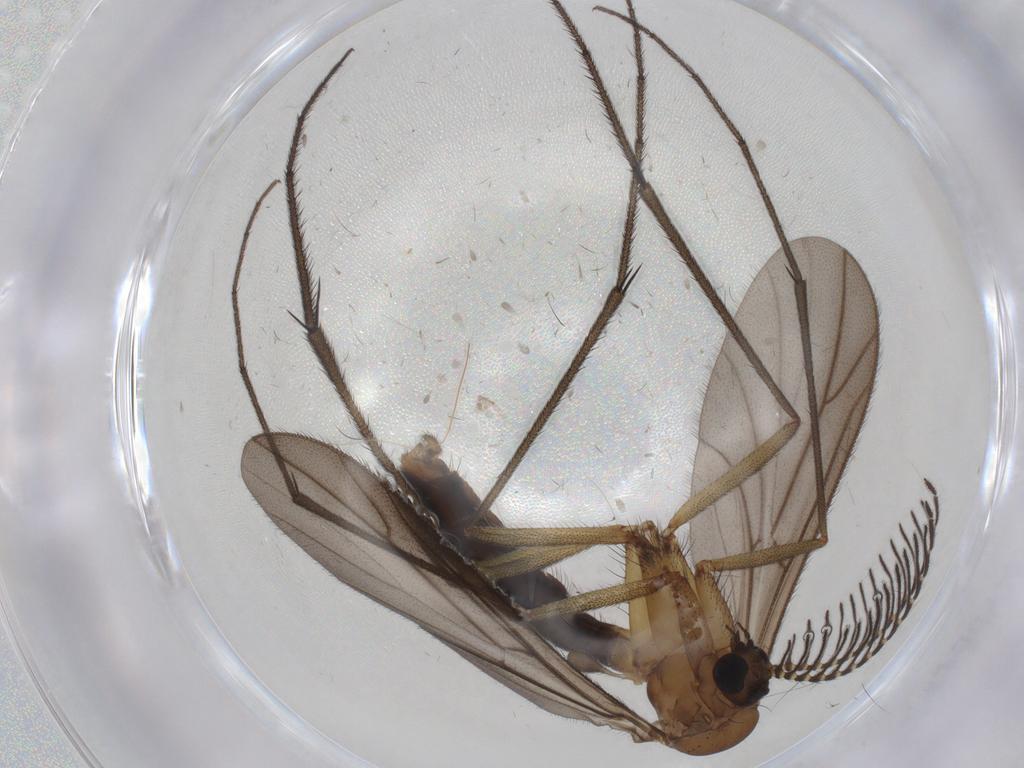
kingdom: Animalia
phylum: Arthropoda
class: Insecta
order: Diptera
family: Ditomyiidae
